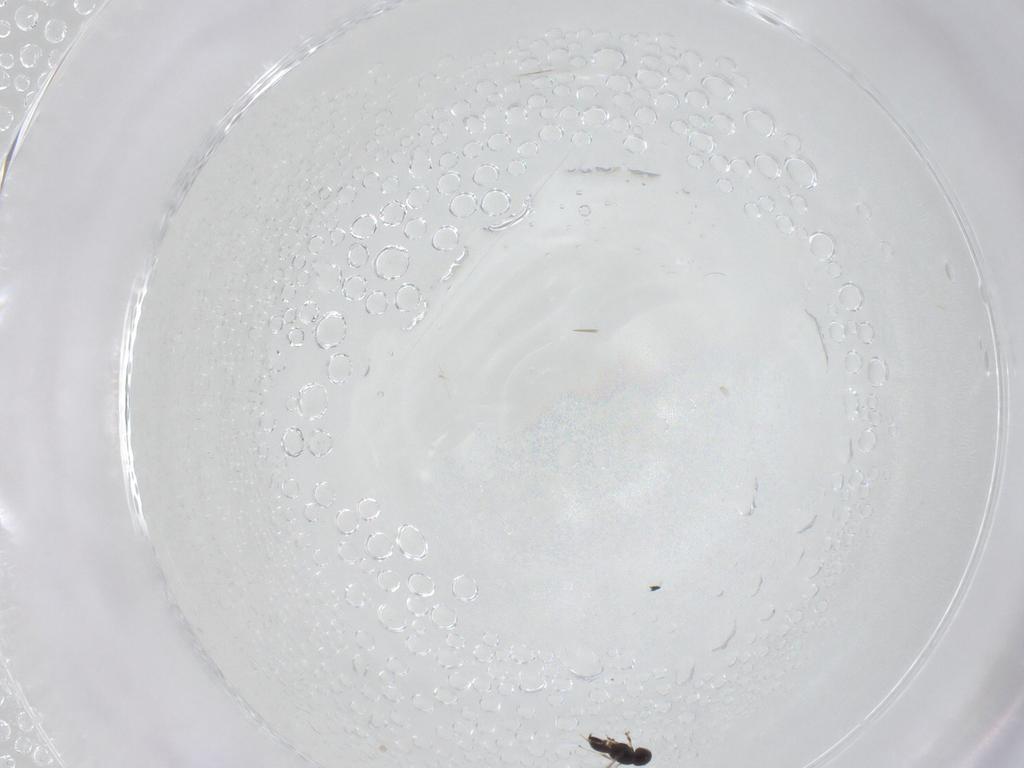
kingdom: Animalia
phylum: Arthropoda
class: Insecta
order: Hymenoptera
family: Scelionidae
